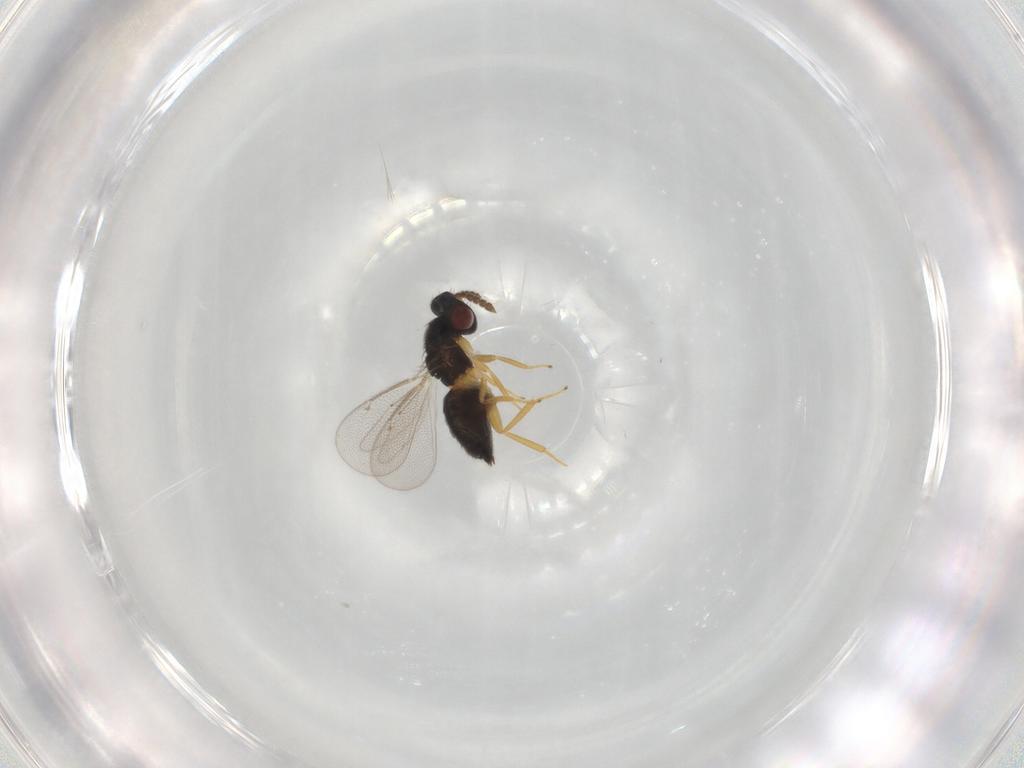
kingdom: Animalia
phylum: Arthropoda
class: Insecta
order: Hymenoptera
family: Eulophidae
